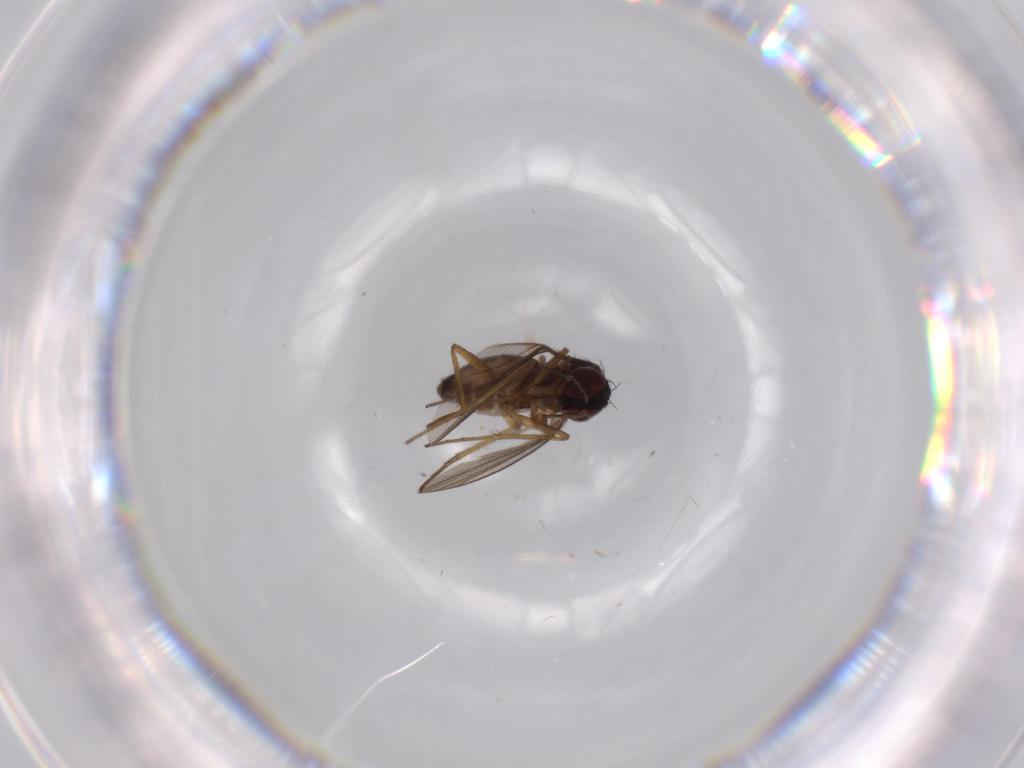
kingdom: Animalia
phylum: Arthropoda
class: Insecta
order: Diptera
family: Dolichopodidae
